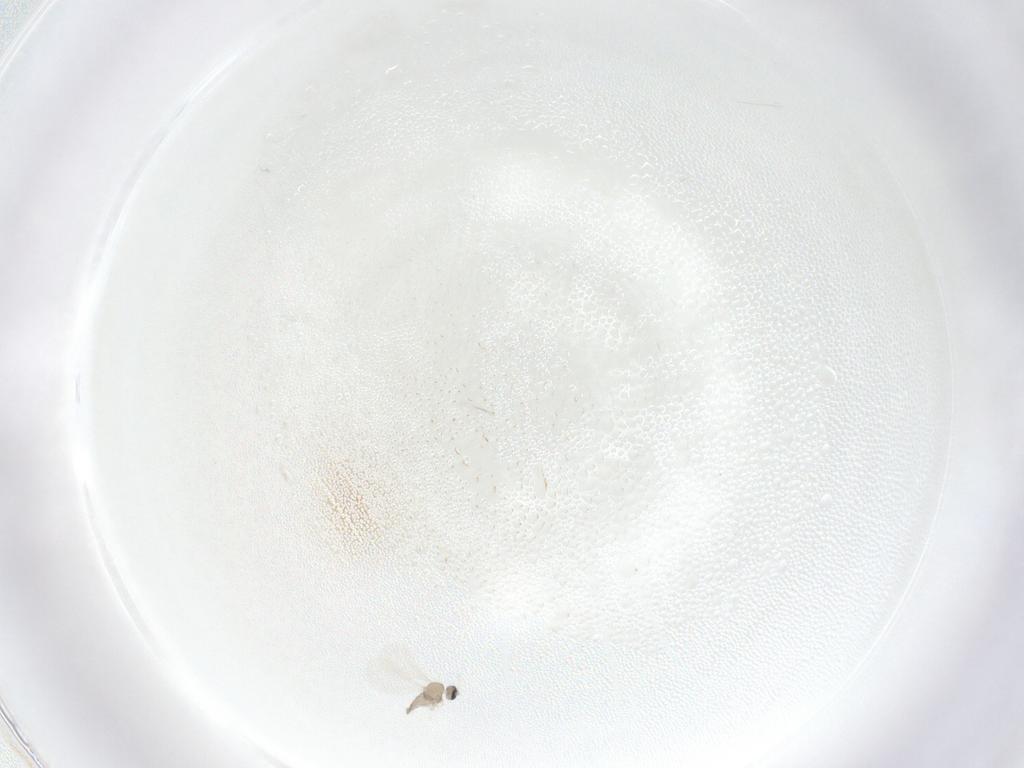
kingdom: Animalia
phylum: Arthropoda
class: Insecta
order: Diptera
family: Cecidomyiidae
